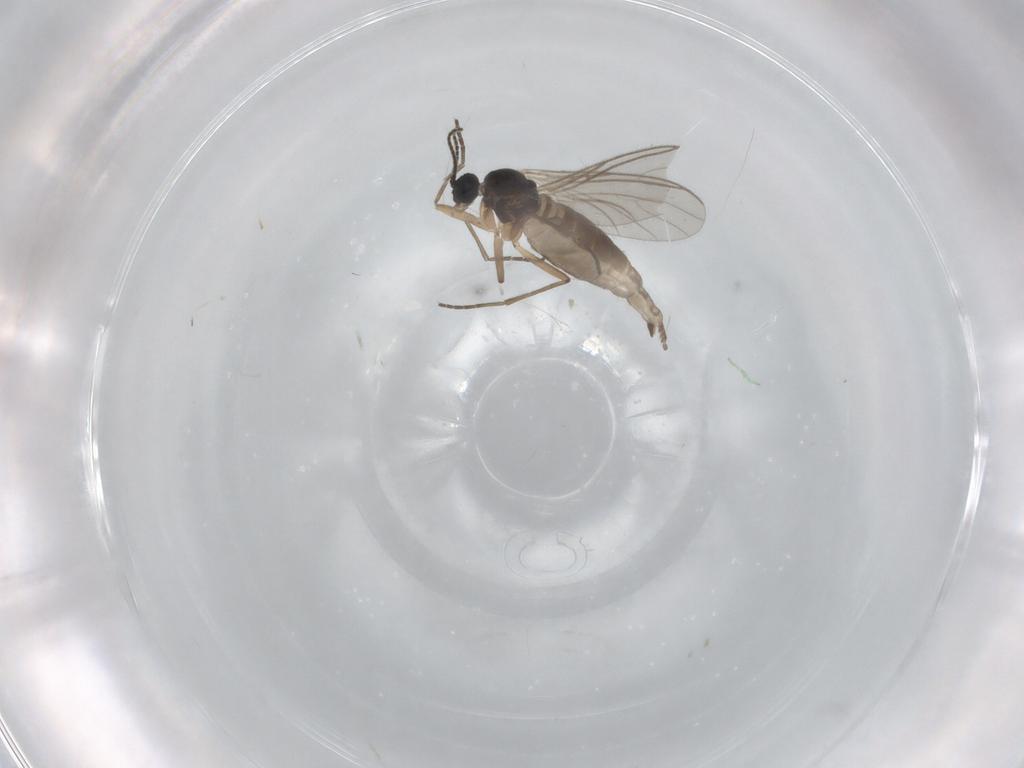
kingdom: Animalia
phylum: Arthropoda
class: Insecta
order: Diptera
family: Sciaridae
